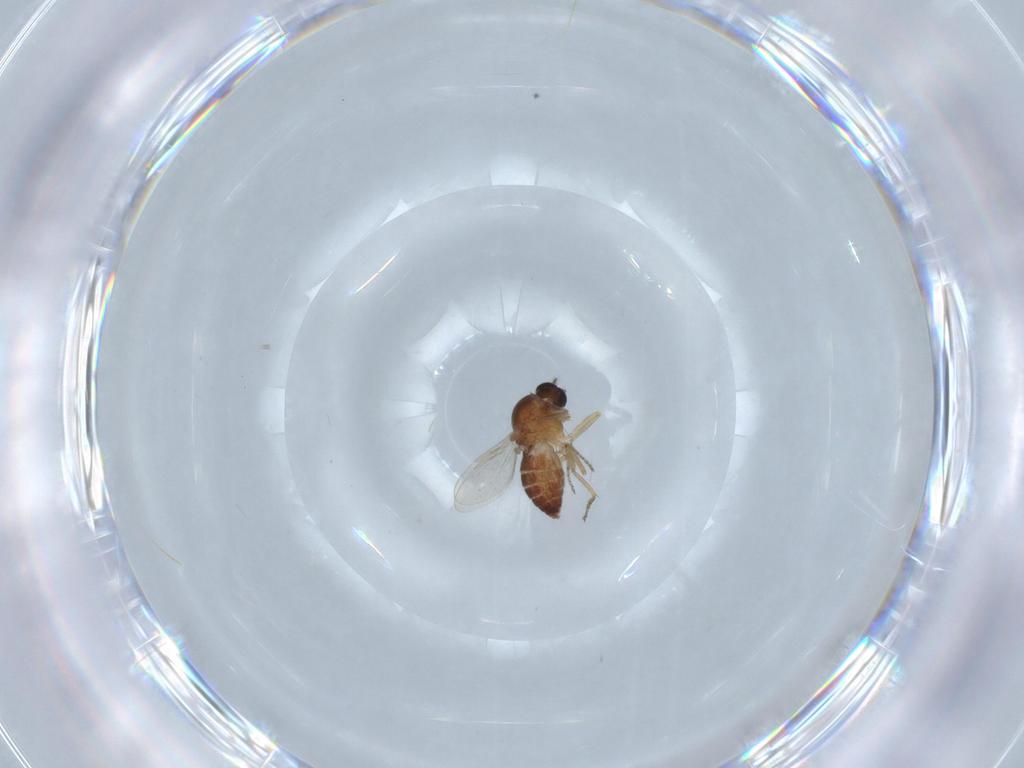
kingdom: Animalia
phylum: Arthropoda
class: Insecta
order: Diptera
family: Ceratopogonidae
